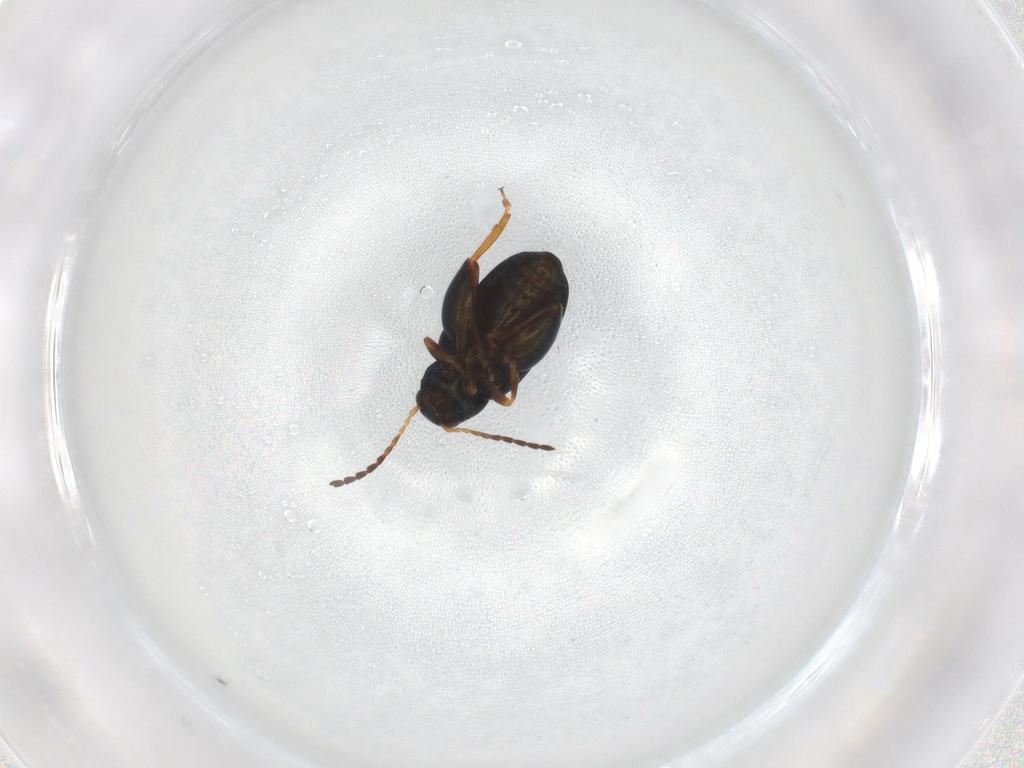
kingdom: Animalia
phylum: Arthropoda
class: Insecta
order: Coleoptera
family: Chrysomelidae
